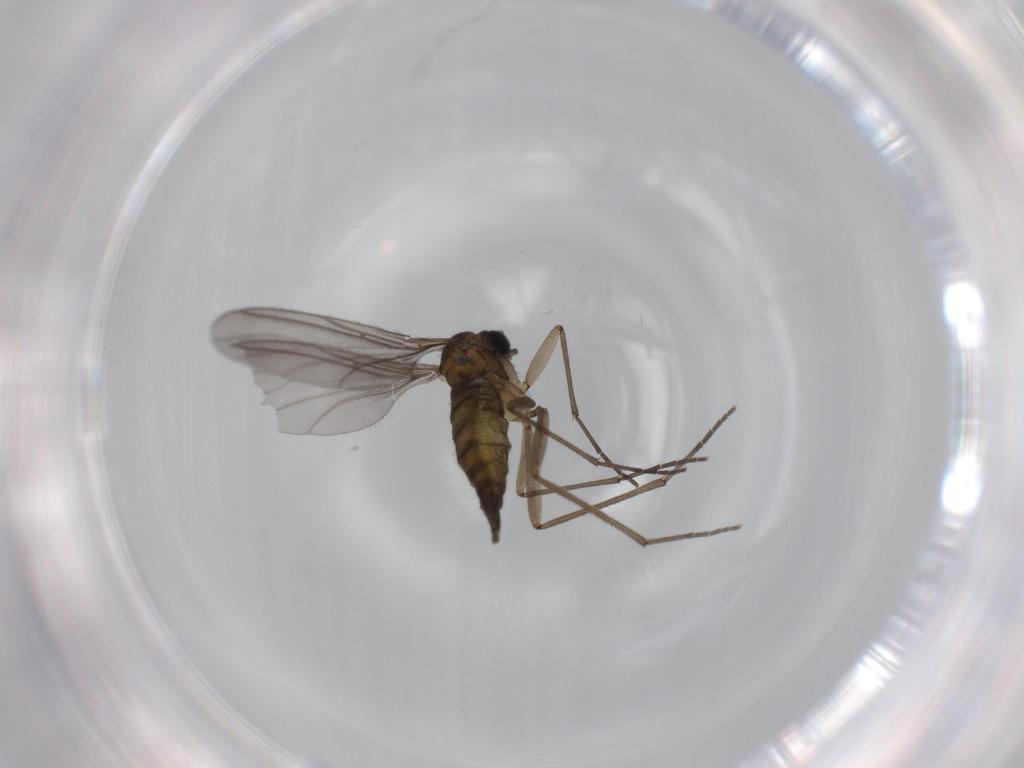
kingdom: Animalia
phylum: Arthropoda
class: Insecta
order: Diptera
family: Sciaridae
